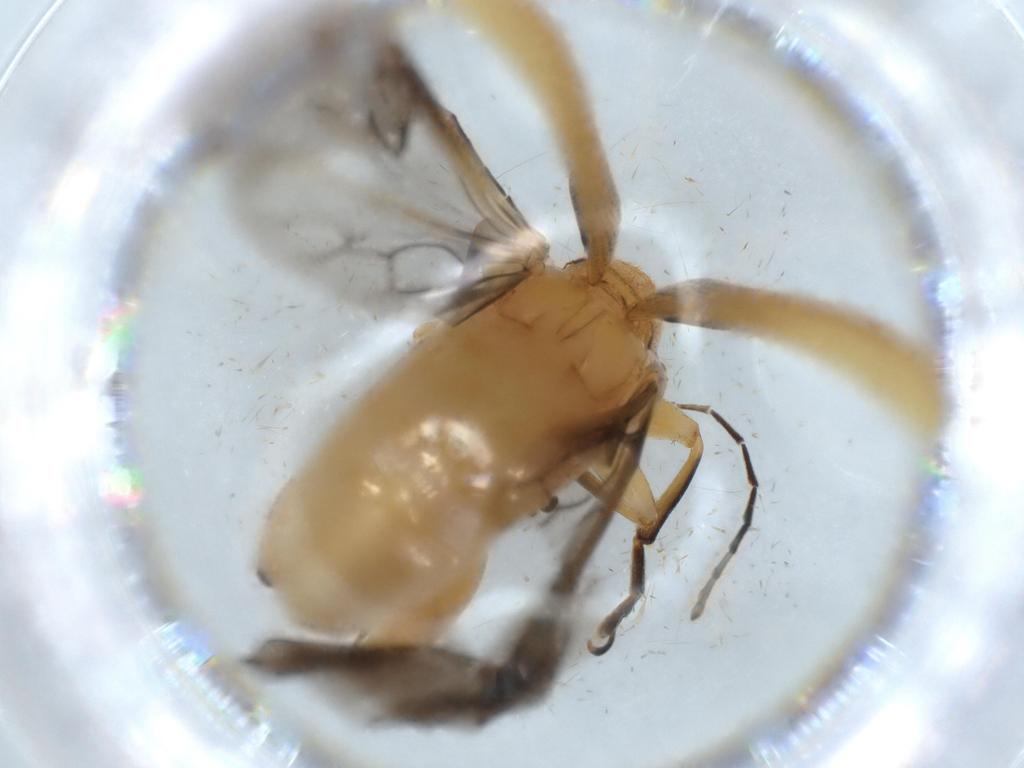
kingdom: Animalia
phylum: Arthropoda
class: Insecta
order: Coleoptera
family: Chrysomelidae
